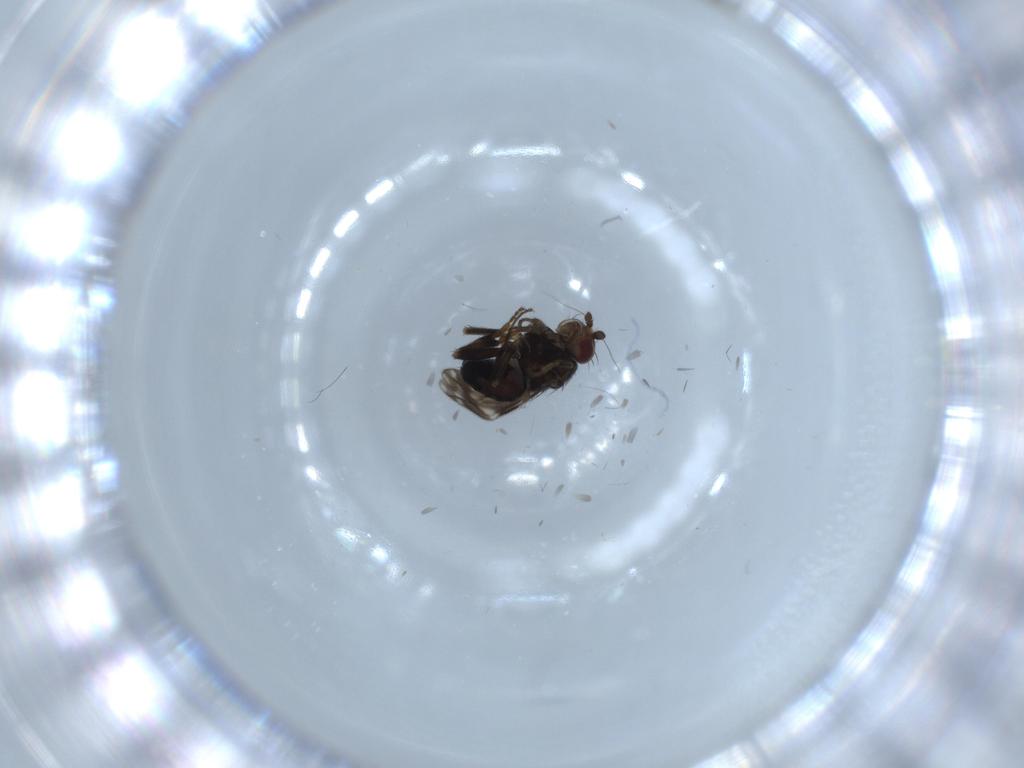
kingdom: Animalia
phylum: Arthropoda
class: Insecta
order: Diptera
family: Sphaeroceridae
